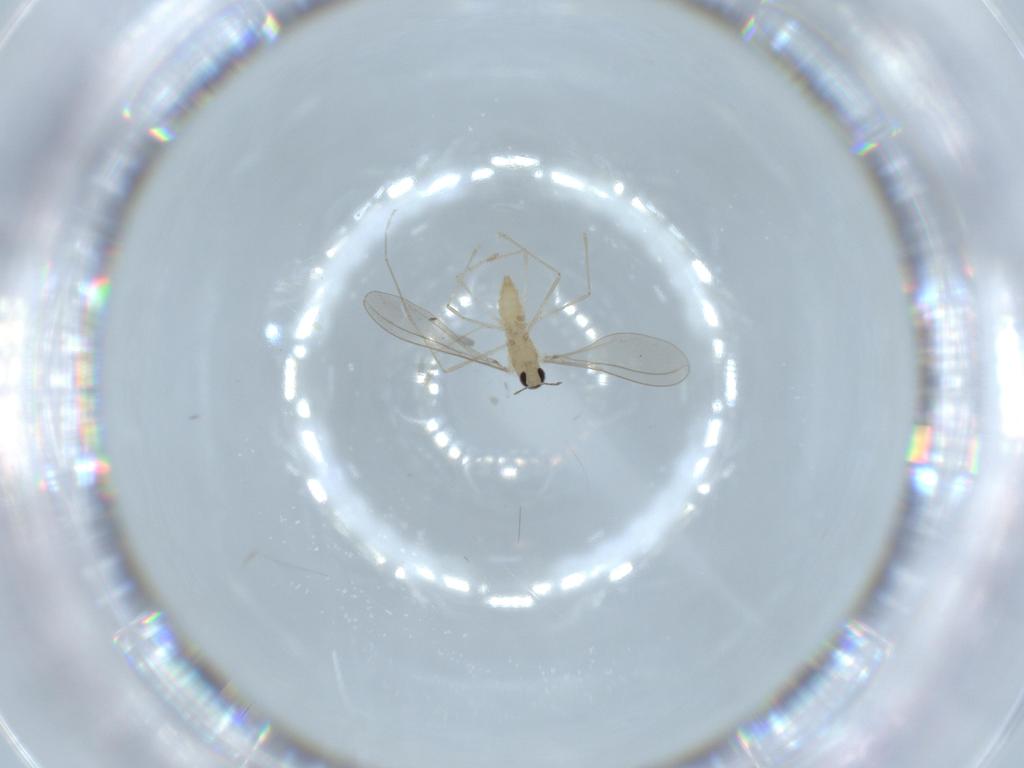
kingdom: Animalia
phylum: Arthropoda
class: Insecta
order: Diptera
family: Cecidomyiidae
